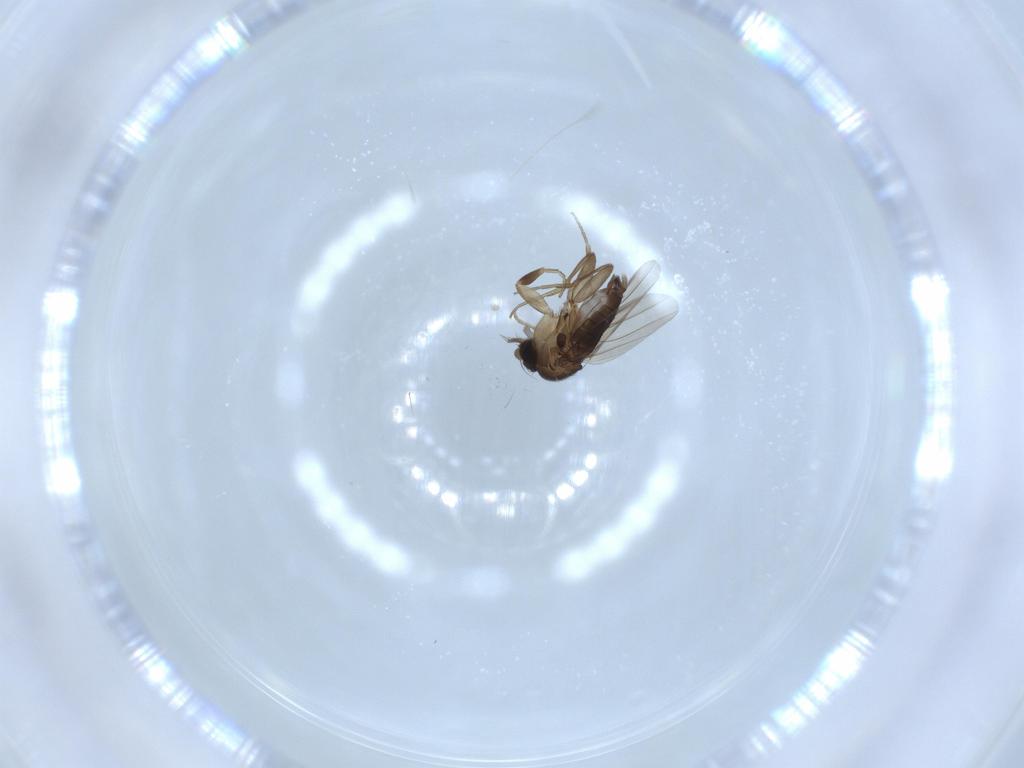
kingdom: Animalia
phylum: Arthropoda
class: Insecta
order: Diptera
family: Phoridae
